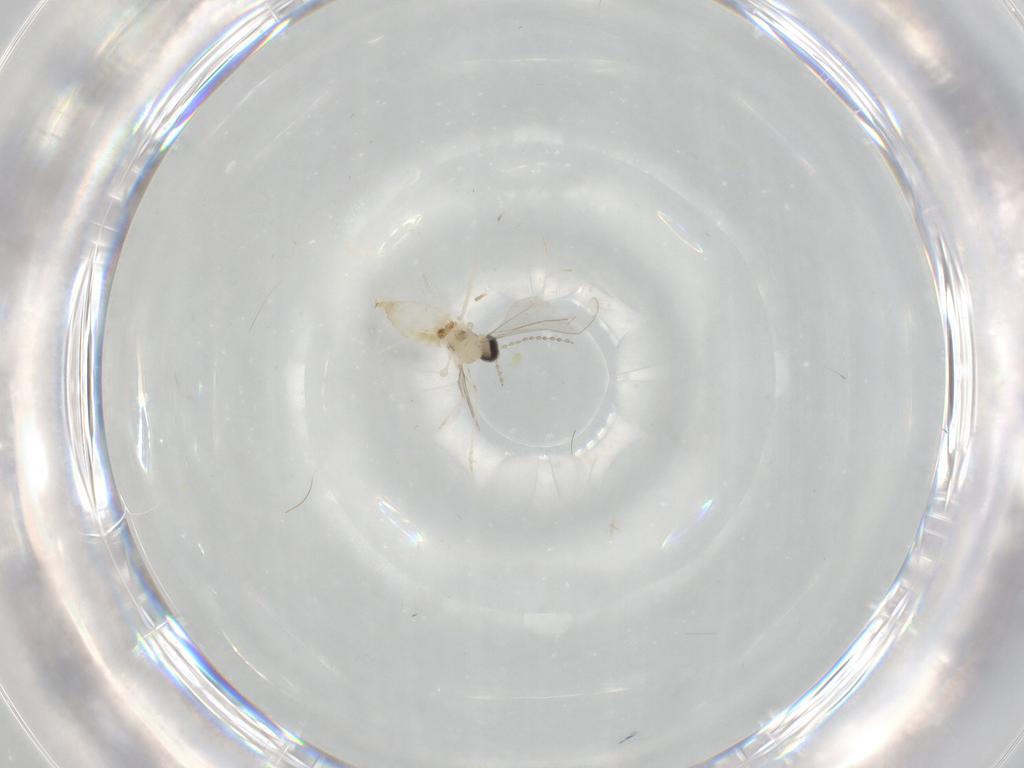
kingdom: Animalia
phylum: Arthropoda
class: Insecta
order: Diptera
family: Cecidomyiidae
